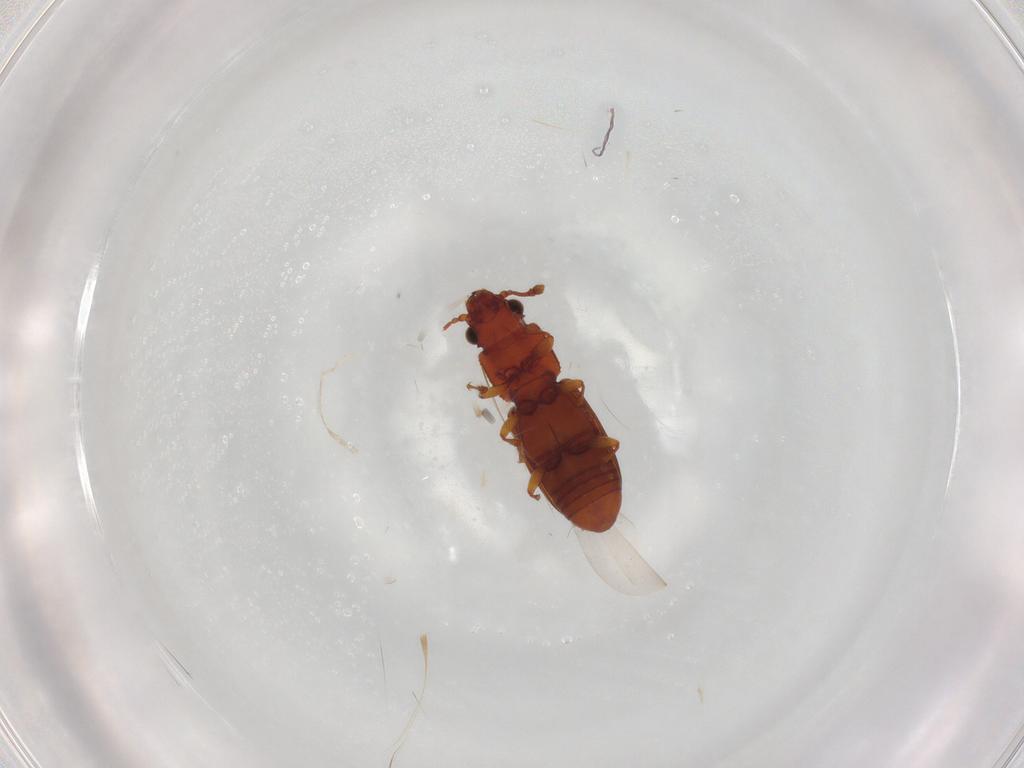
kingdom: Animalia
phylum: Arthropoda
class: Insecta
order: Coleoptera
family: Monotomidae
